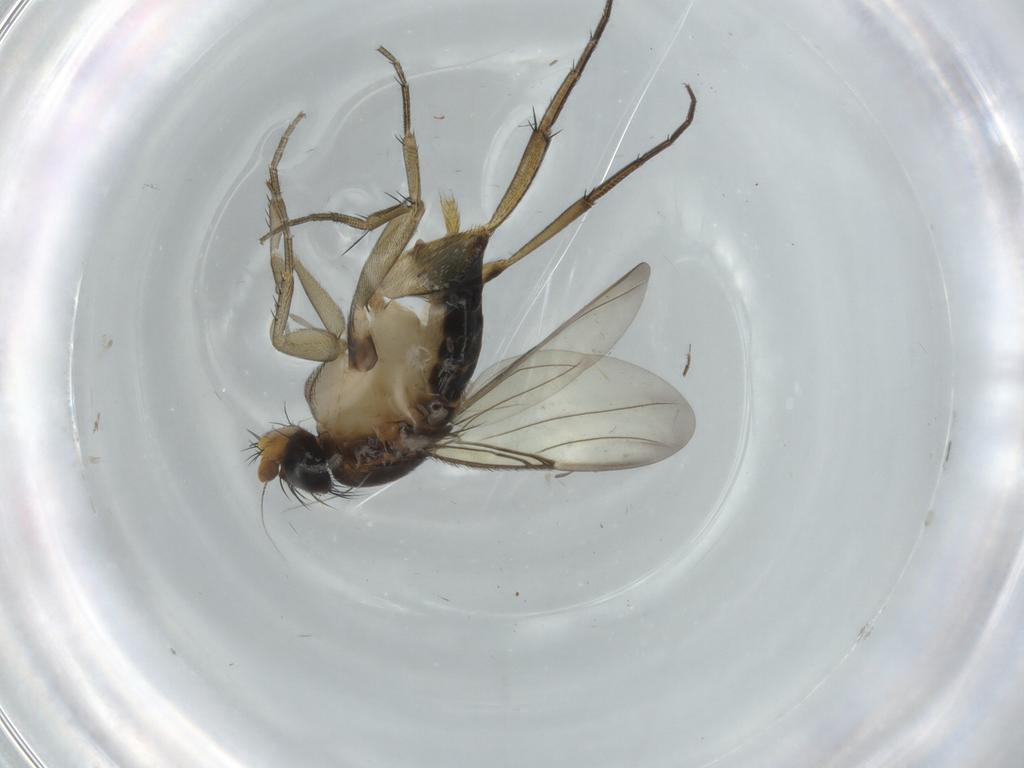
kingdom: Animalia
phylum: Arthropoda
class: Insecta
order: Diptera
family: Phoridae
